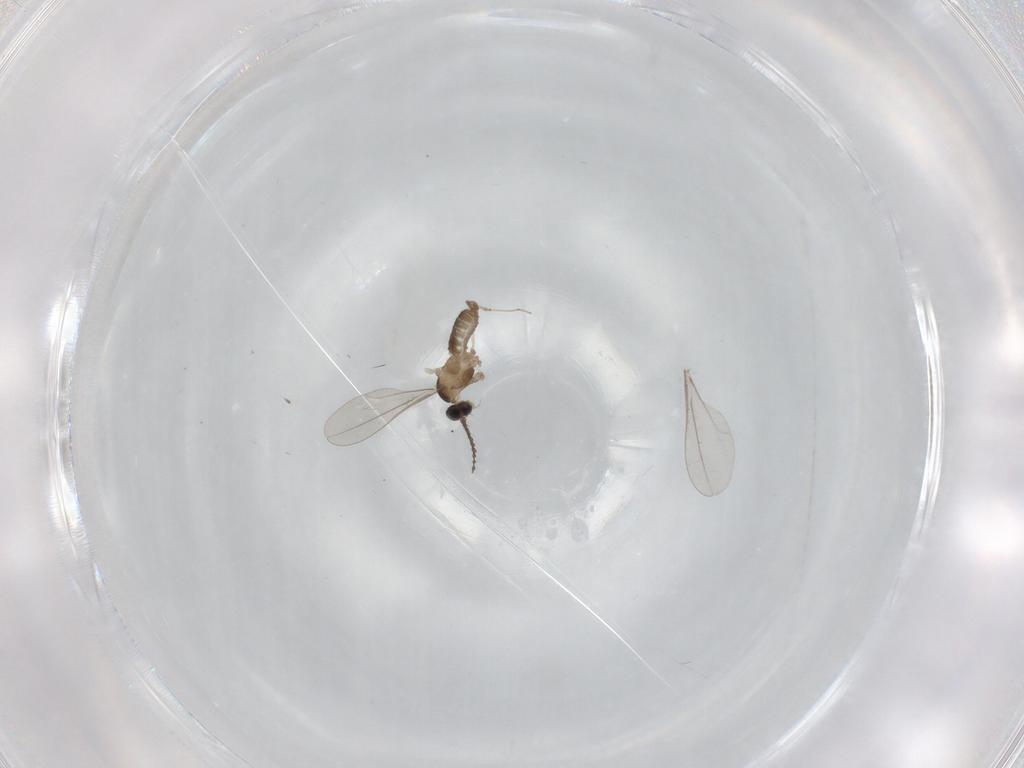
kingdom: Animalia
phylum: Arthropoda
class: Insecta
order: Diptera
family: Cecidomyiidae
